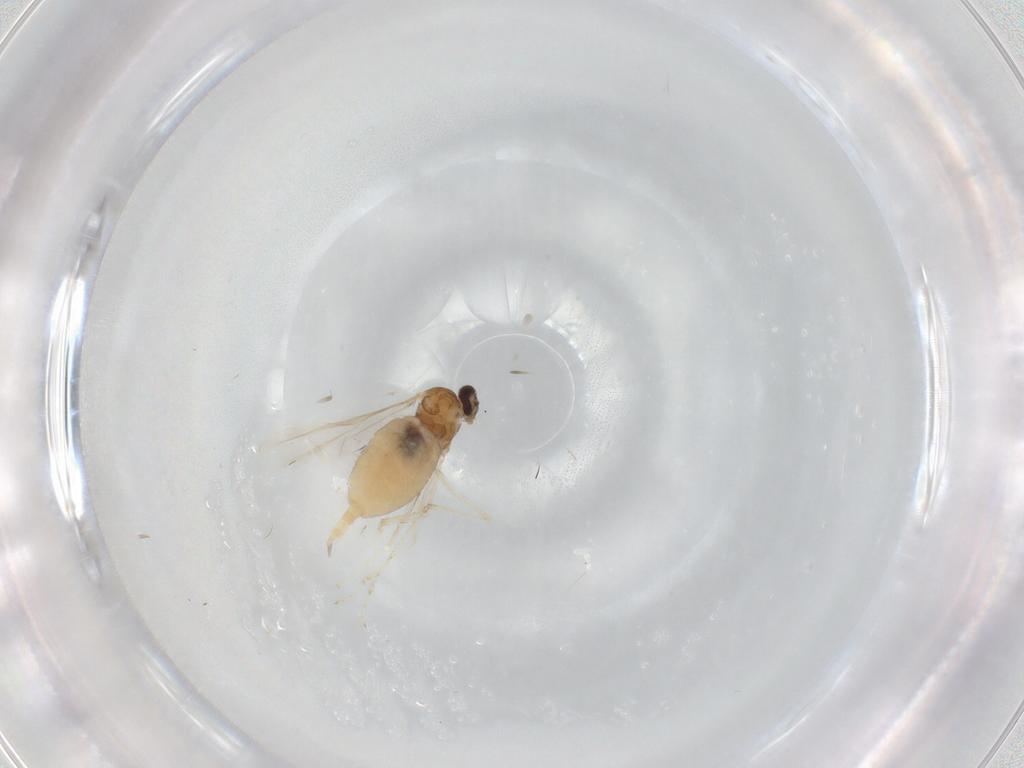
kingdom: Animalia
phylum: Arthropoda
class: Insecta
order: Diptera
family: Cecidomyiidae
